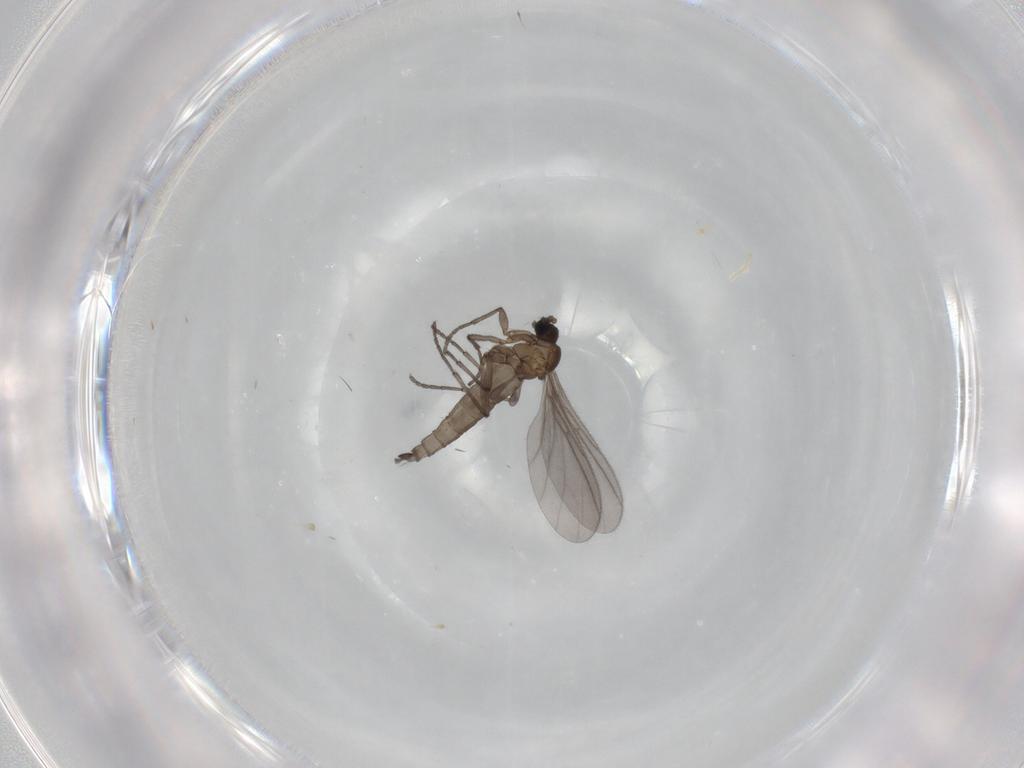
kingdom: Animalia
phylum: Arthropoda
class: Insecta
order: Diptera
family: Sciaridae
